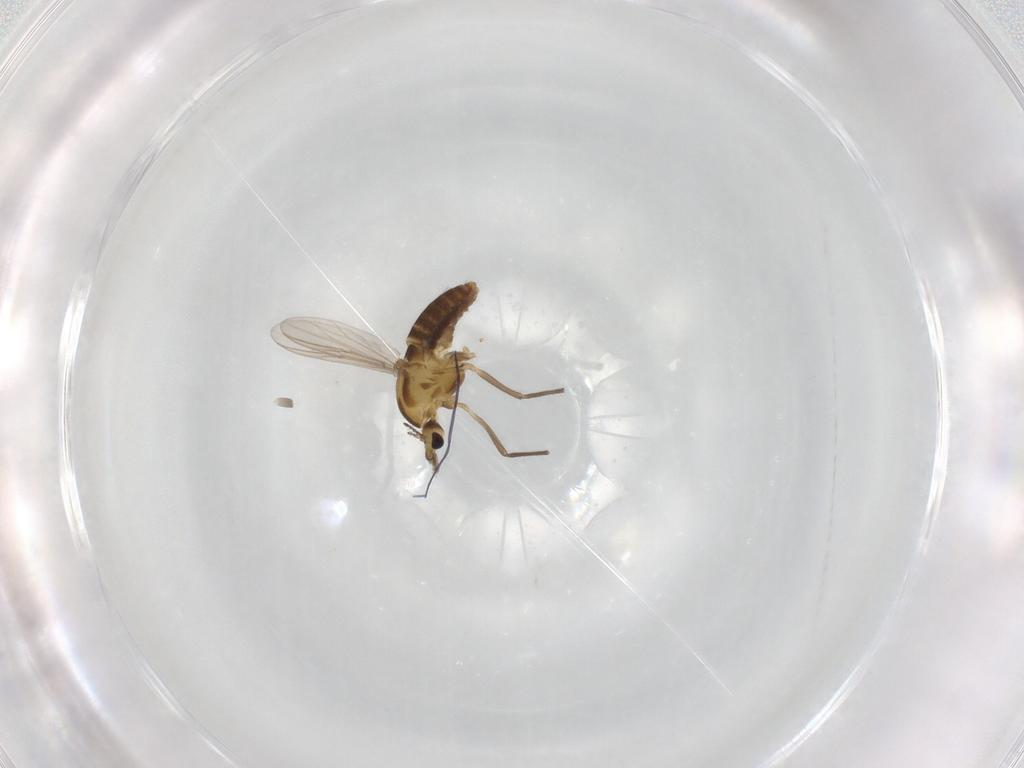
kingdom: Animalia
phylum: Arthropoda
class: Insecta
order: Diptera
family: Chironomidae
